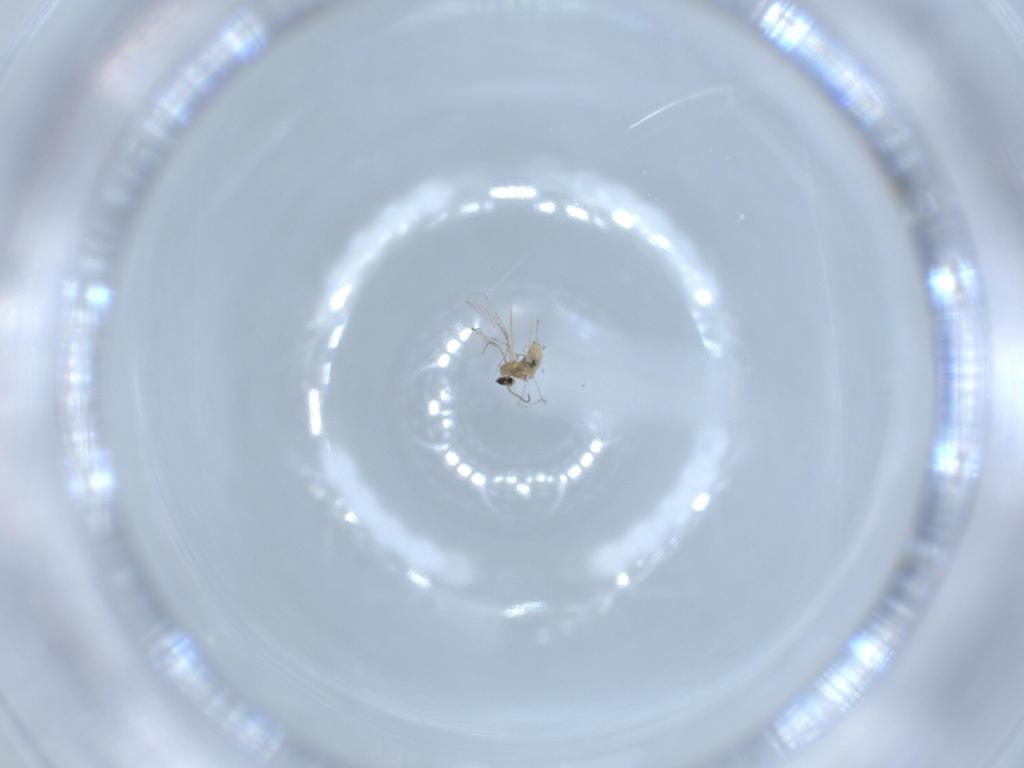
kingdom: Animalia
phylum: Arthropoda
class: Insecta
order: Diptera
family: Cecidomyiidae
